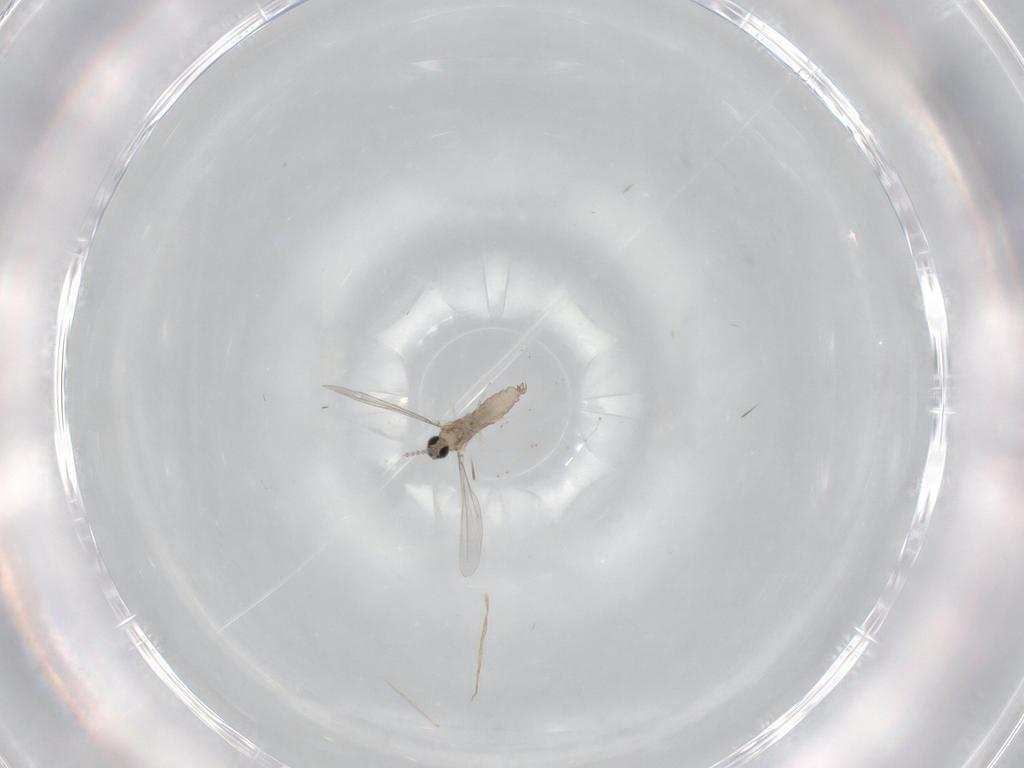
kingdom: Animalia
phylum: Arthropoda
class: Insecta
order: Diptera
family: Cecidomyiidae
